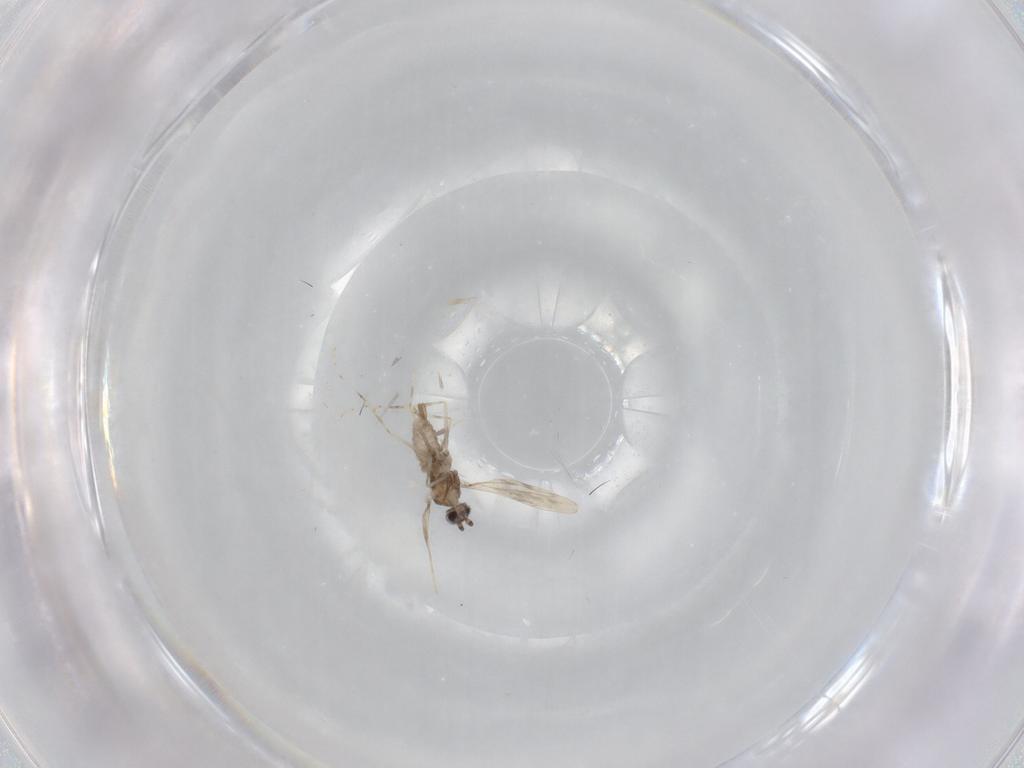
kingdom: Animalia
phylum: Arthropoda
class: Insecta
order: Diptera
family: Cecidomyiidae
